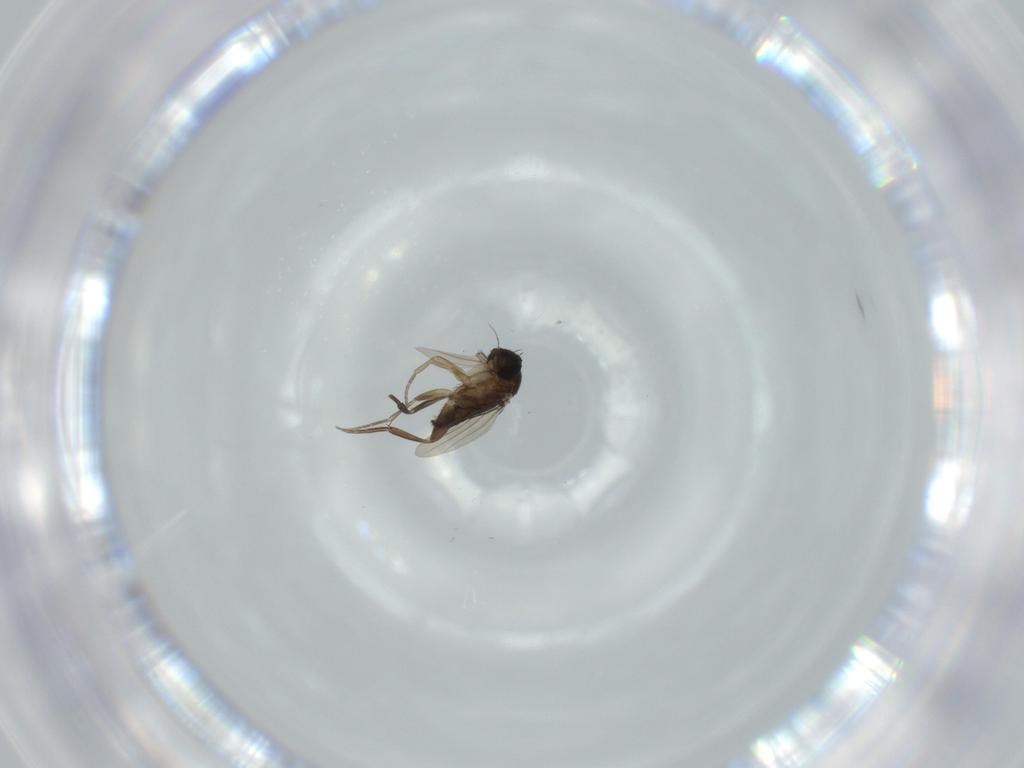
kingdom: Animalia
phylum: Arthropoda
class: Insecta
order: Diptera
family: Phoridae
